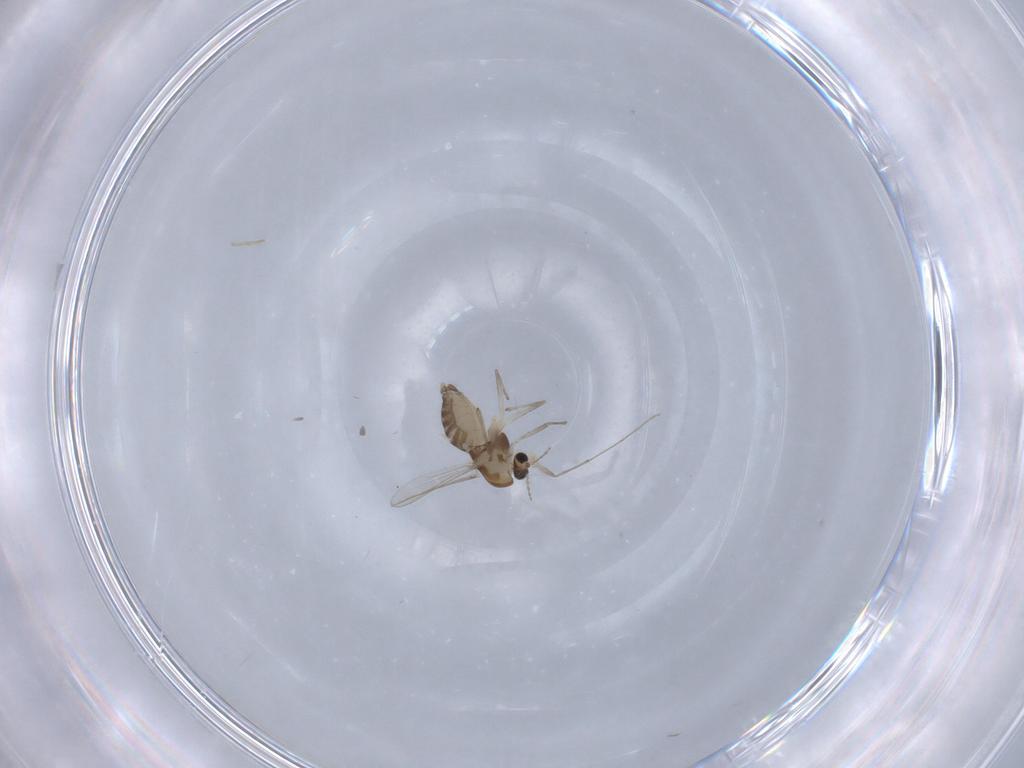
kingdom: Animalia
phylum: Arthropoda
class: Insecta
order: Diptera
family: Chironomidae
